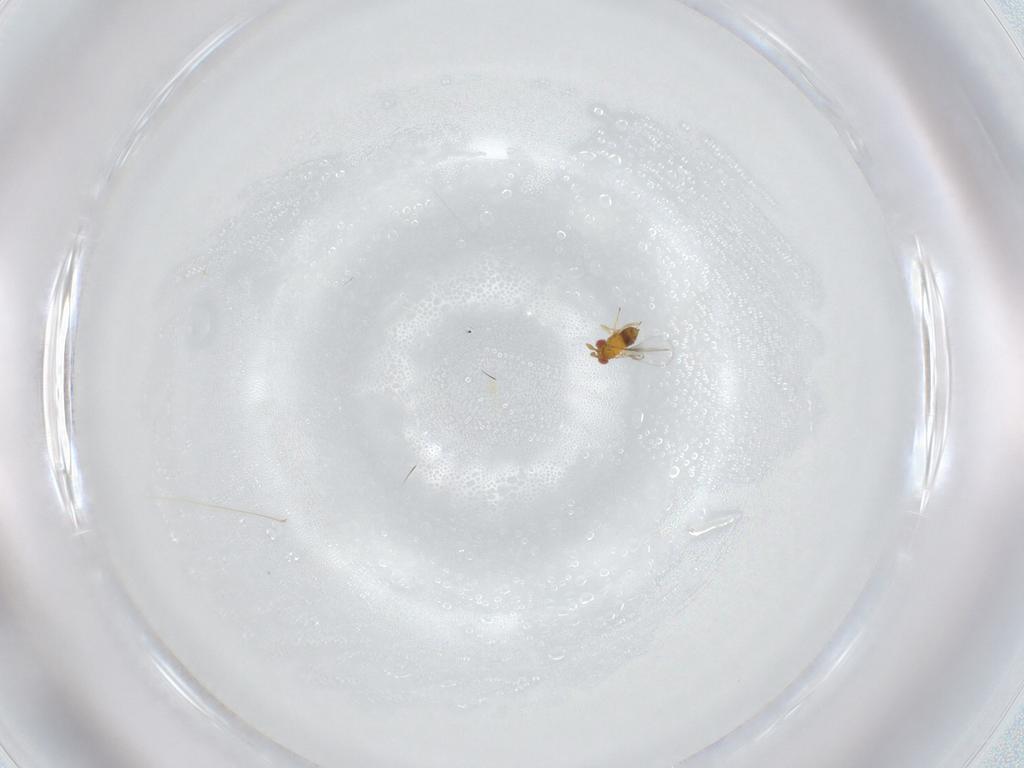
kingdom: Animalia
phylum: Arthropoda
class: Insecta
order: Hymenoptera
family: Trichogrammatidae
